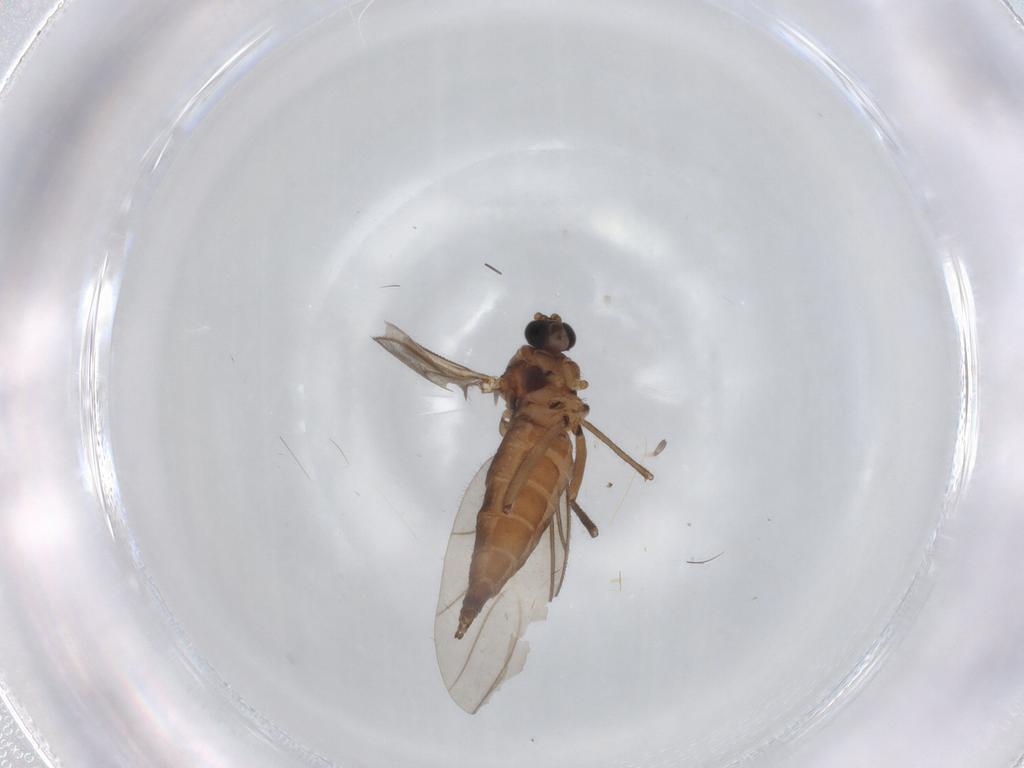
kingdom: Animalia
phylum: Arthropoda
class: Insecta
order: Diptera
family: Sciaridae
